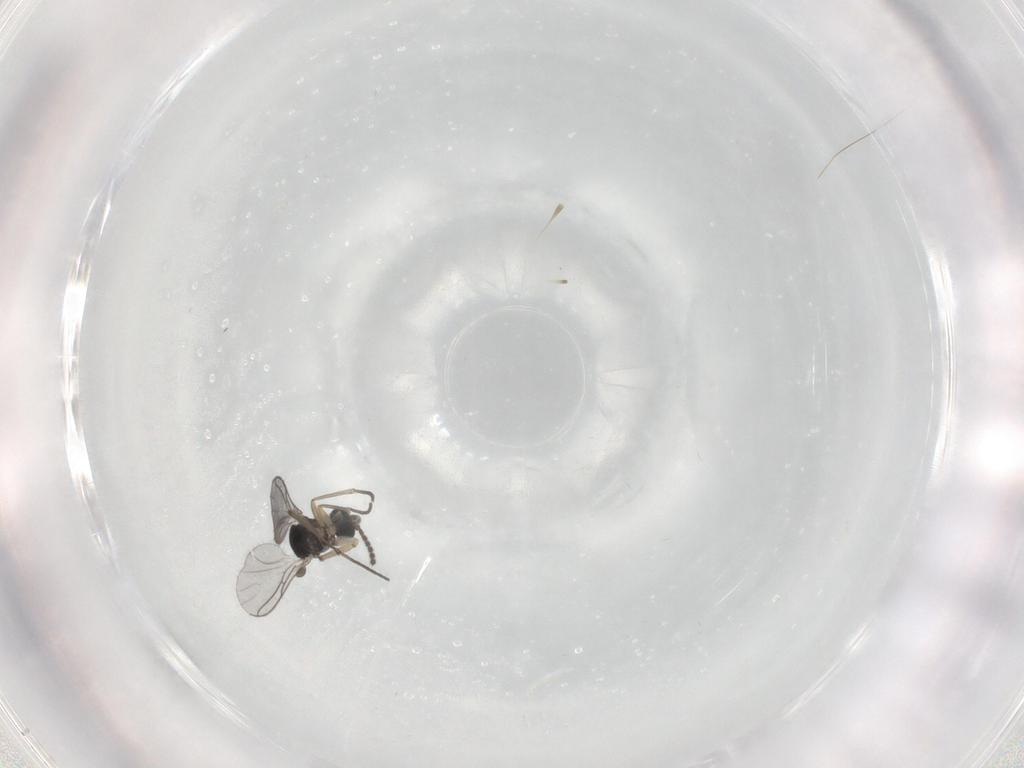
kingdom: Animalia
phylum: Arthropoda
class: Insecta
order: Diptera
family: Sciaridae
